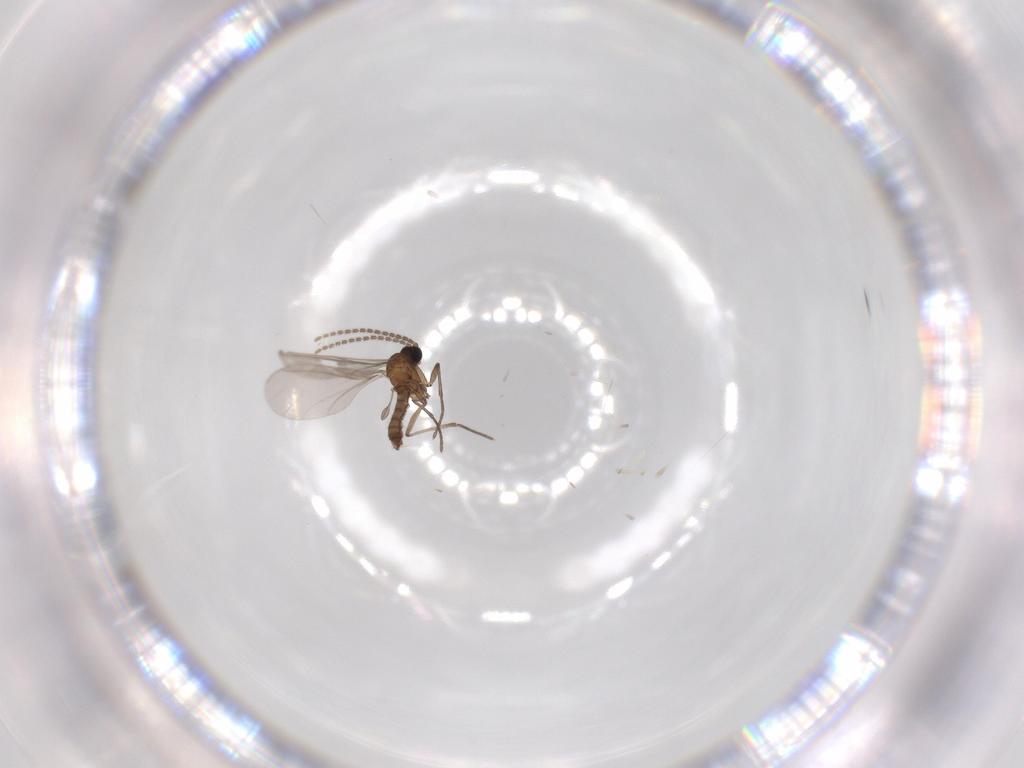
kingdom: Animalia
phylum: Arthropoda
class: Insecta
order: Diptera
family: Sciaridae
